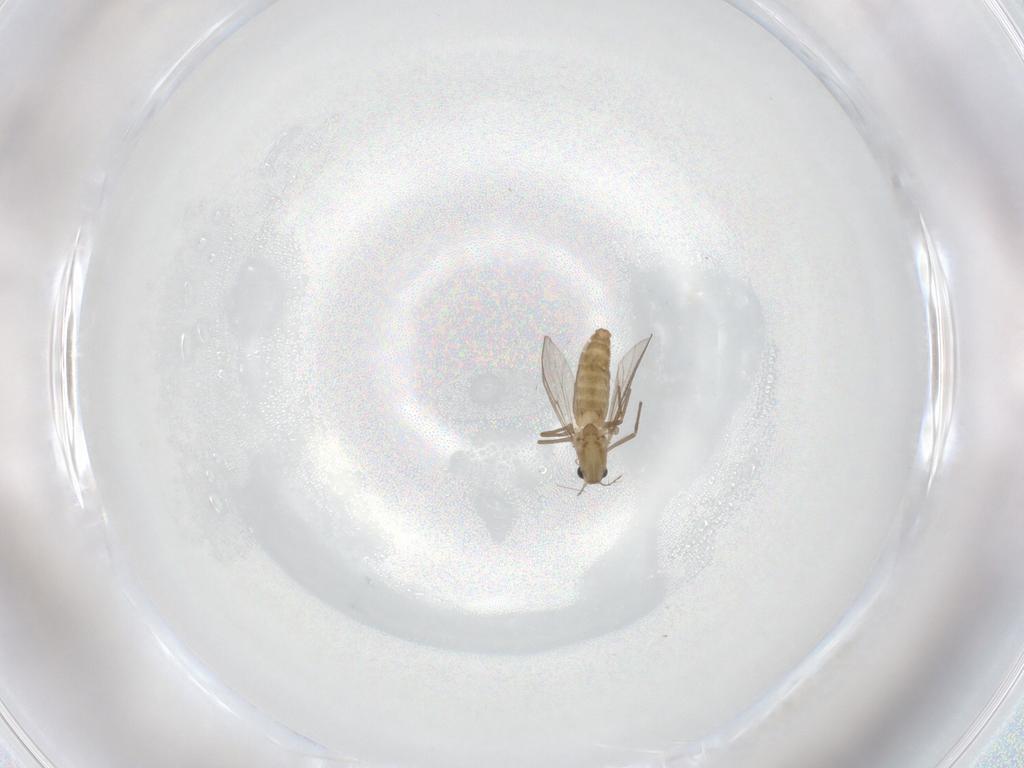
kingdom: Animalia
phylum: Arthropoda
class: Insecta
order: Diptera
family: Chironomidae
